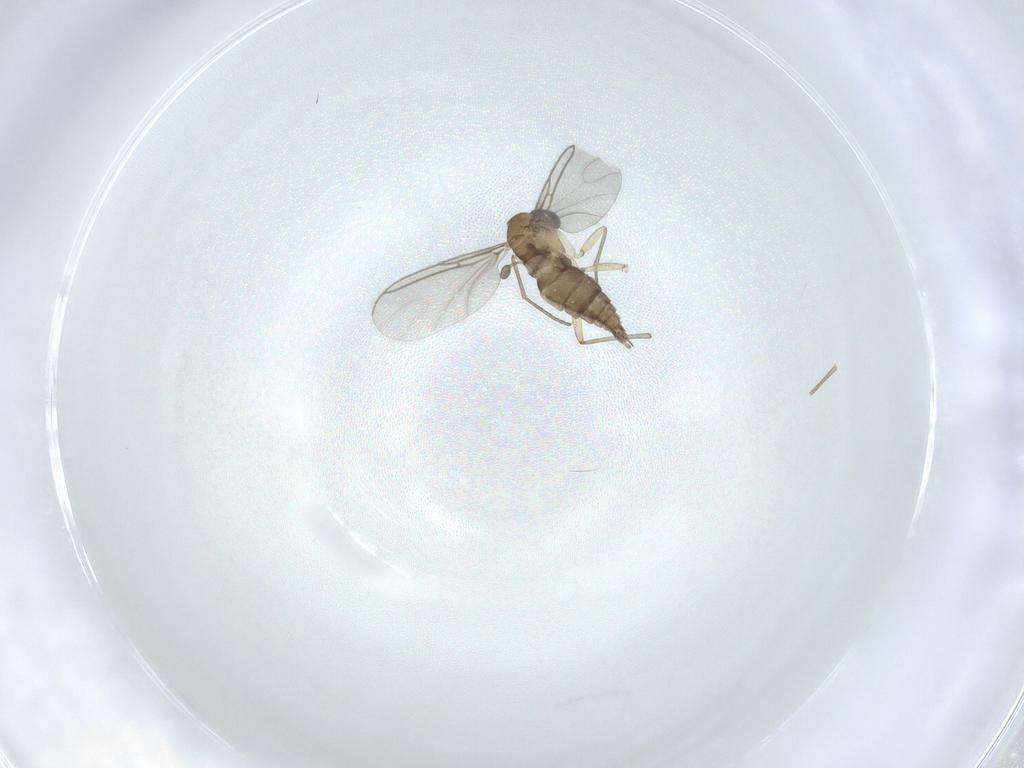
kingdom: Animalia
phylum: Arthropoda
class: Insecta
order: Diptera
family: Sciaridae
